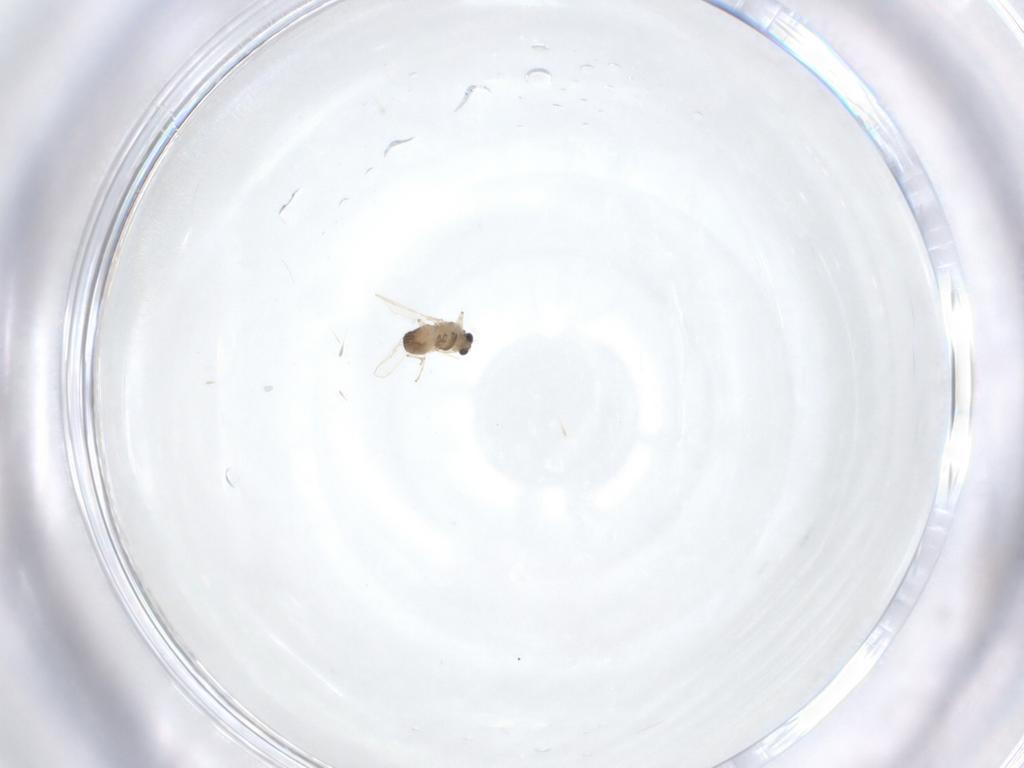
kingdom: Animalia
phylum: Arthropoda
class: Insecta
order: Diptera
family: Chironomidae
